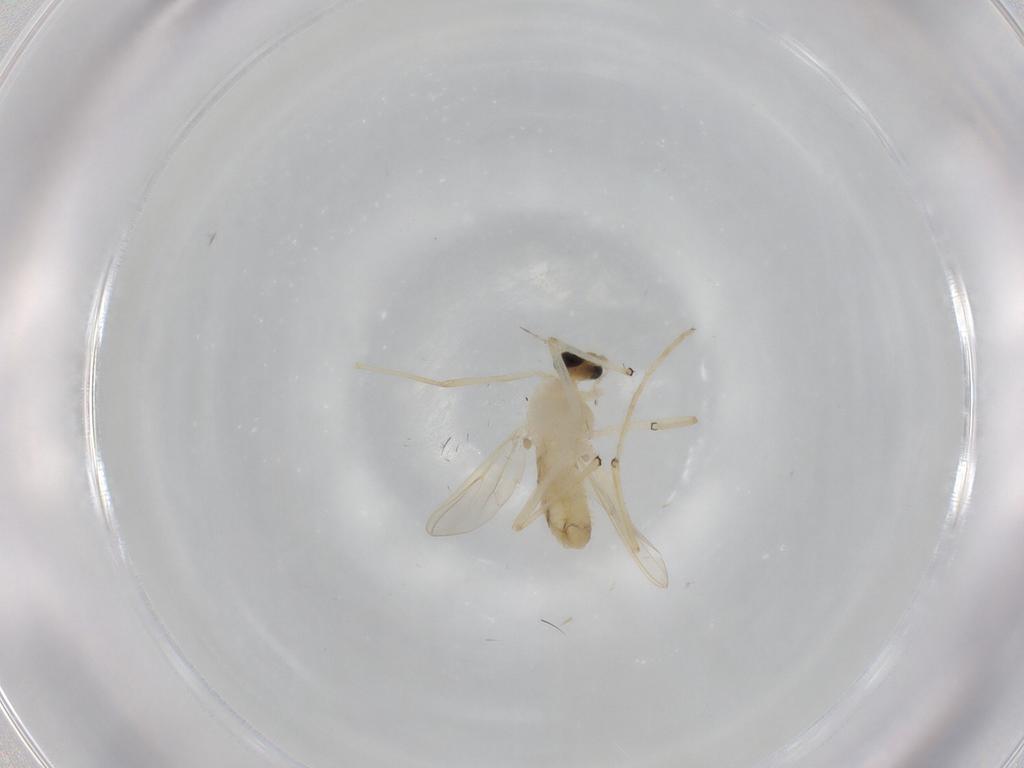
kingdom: Animalia
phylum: Arthropoda
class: Insecta
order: Diptera
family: Chironomidae
